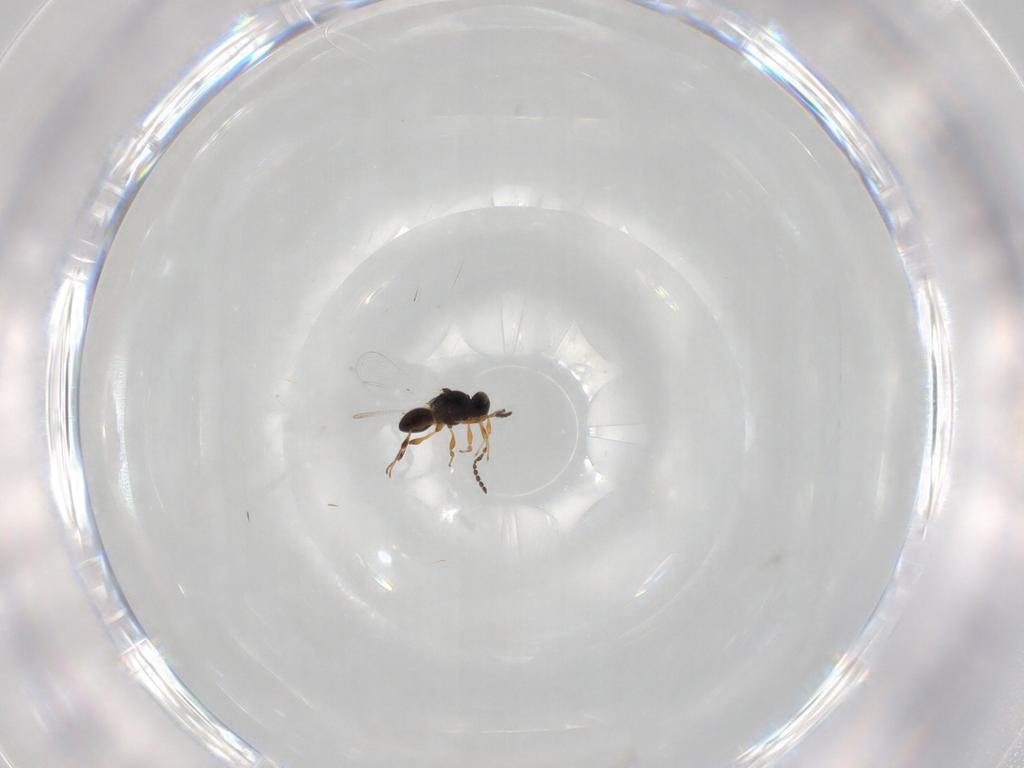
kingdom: Animalia
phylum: Arthropoda
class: Insecta
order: Hymenoptera
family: Platygastridae
